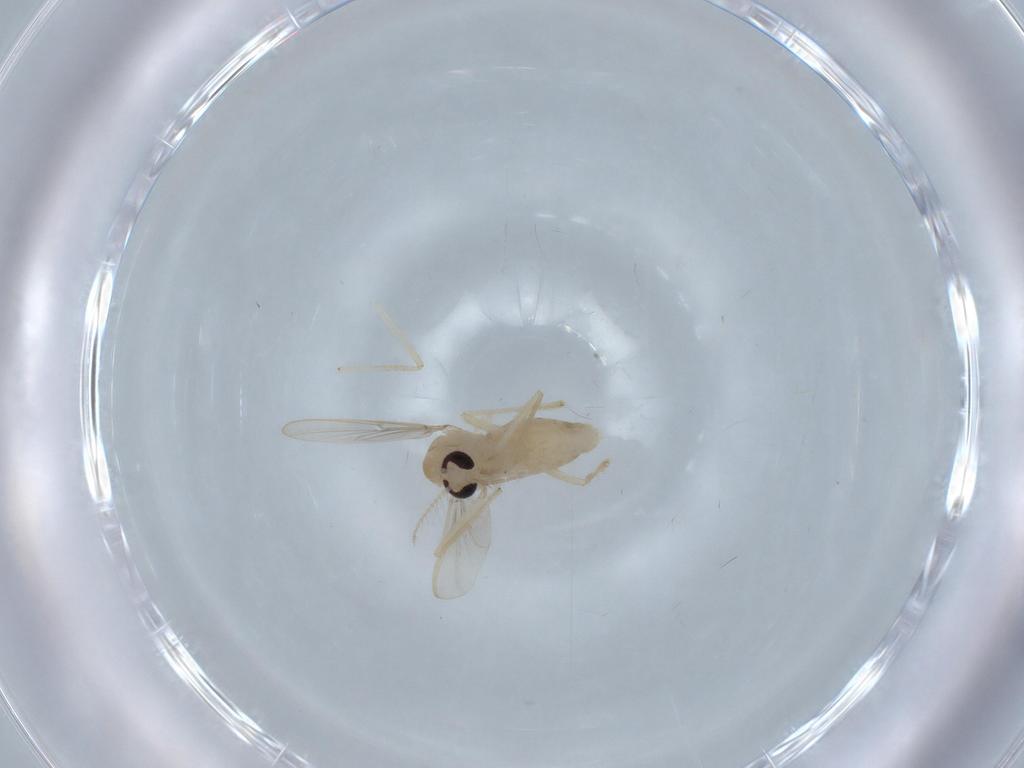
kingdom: Animalia
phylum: Arthropoda
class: Insecta
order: Diptera
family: Chironomidae
